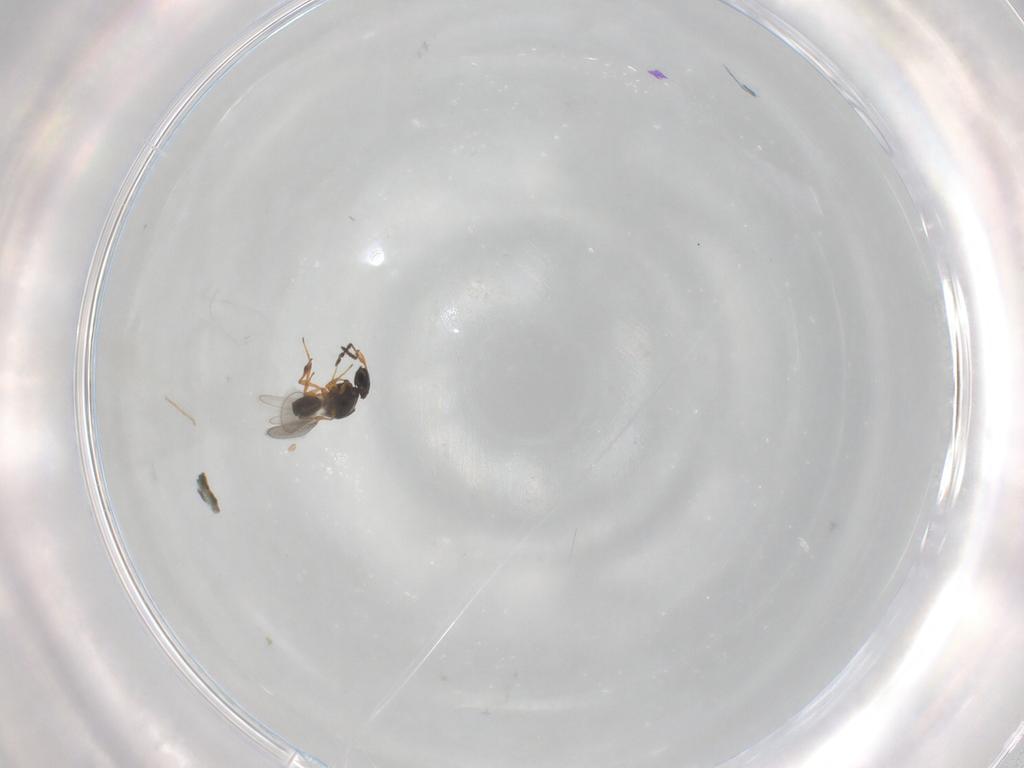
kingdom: Animalia
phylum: Arthropoda
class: Insecta
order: Hymenoptera
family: Platygastridae
